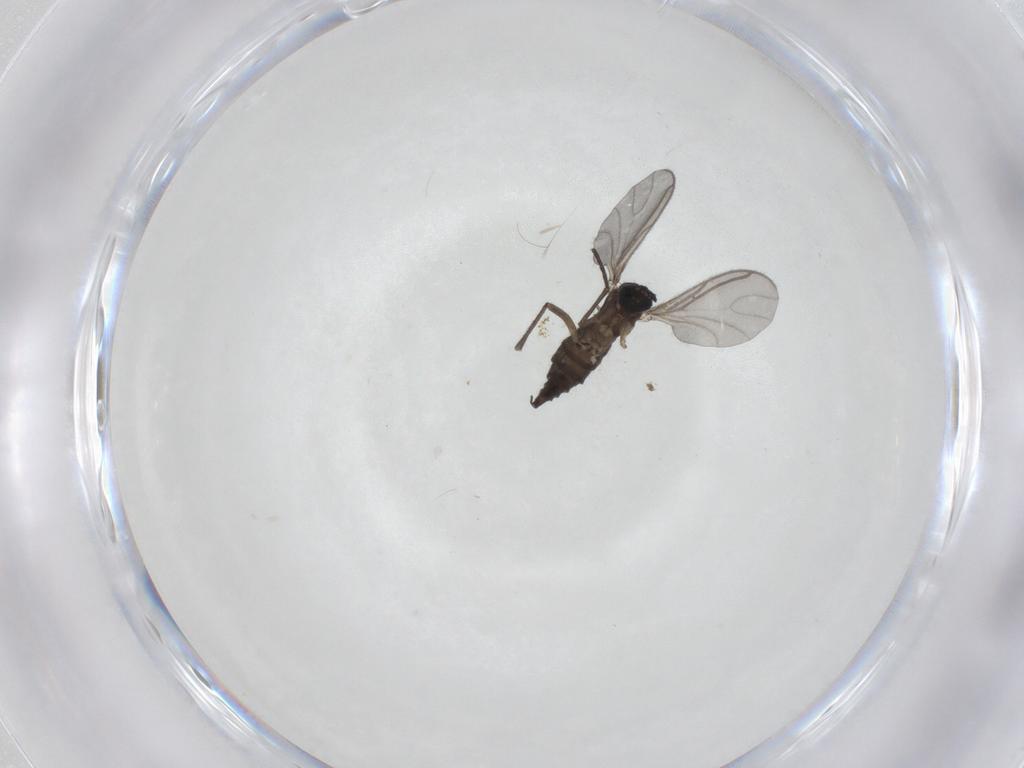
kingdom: Animalia
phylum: Arthropoda
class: Insecta
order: Diptera
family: Sciaridae
